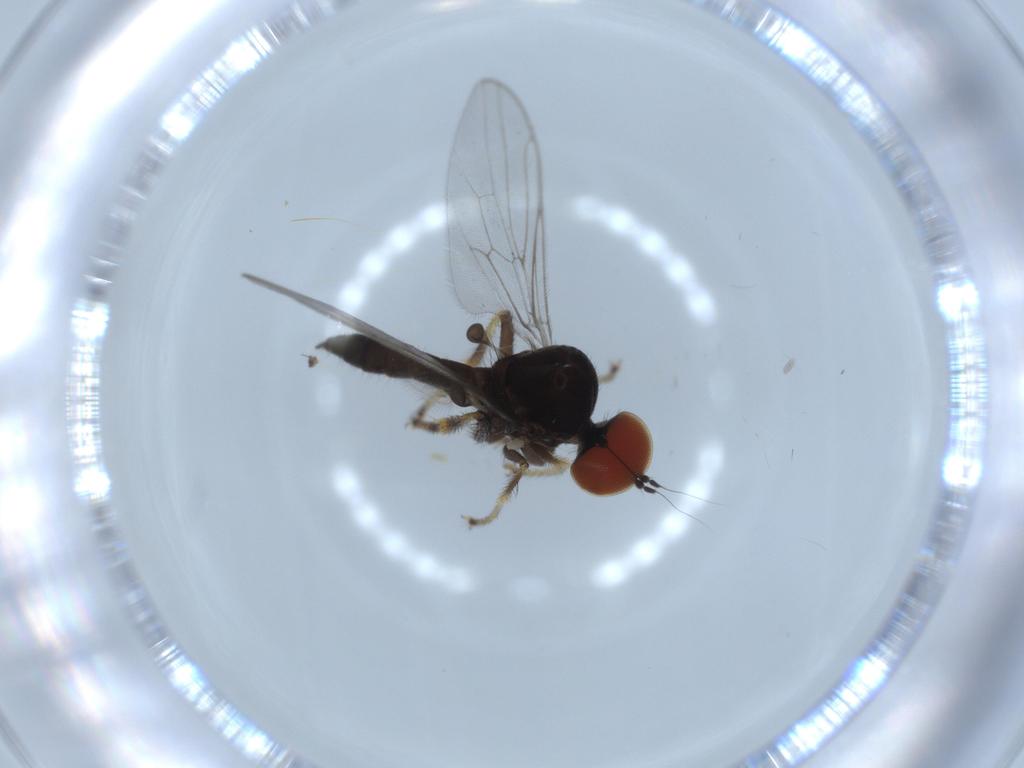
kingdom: Animalia
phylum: Arthropoda
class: Insecta
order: Diptera
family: Hybotidae
